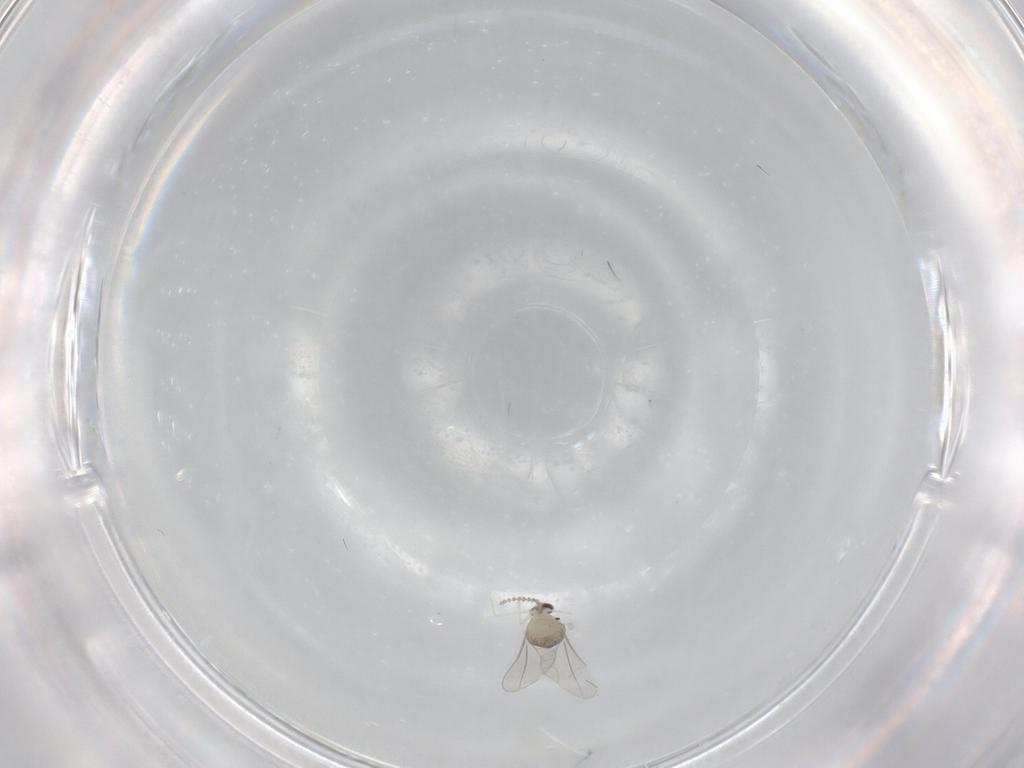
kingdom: Animalia
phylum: Arthropoda
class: Insecta
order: Diptera
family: Cecidomyiidae
